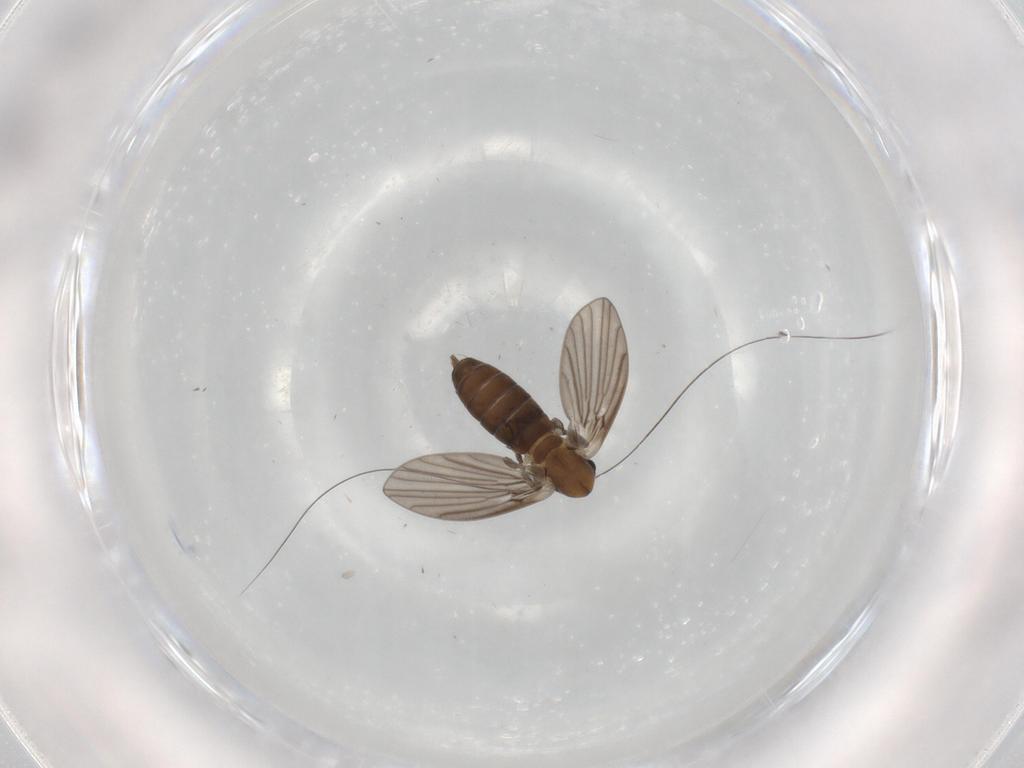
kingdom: Animalia
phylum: Arthropoda
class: Insecta
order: Diptera
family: Psychodidae
